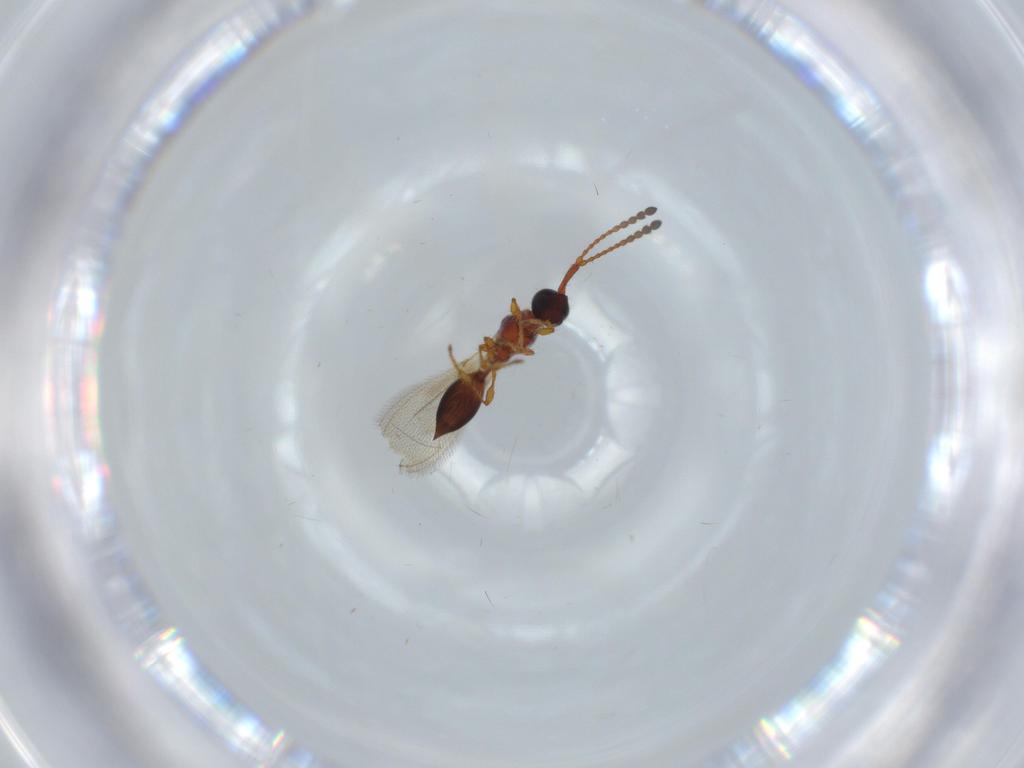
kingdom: Animalia
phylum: Arthropoda
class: Insecta
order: Hymenoptera
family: Diapriidae
